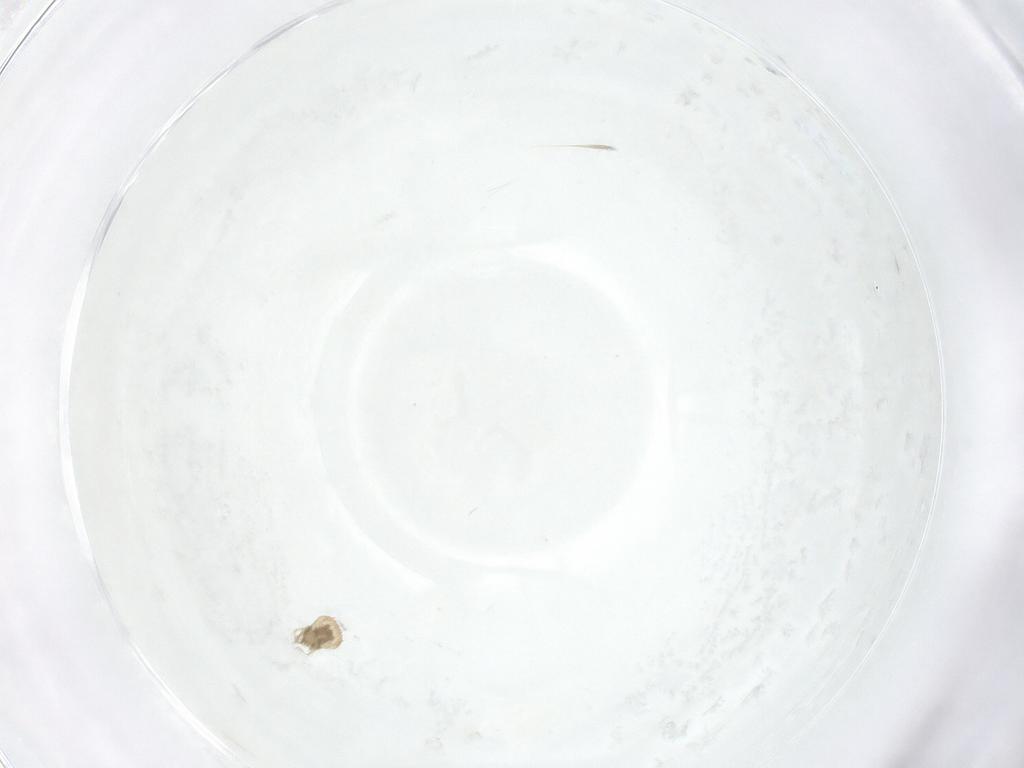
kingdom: Animalia
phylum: Arthropoda
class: Arachnida
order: Sarcoptiformes
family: Oribatulidae
